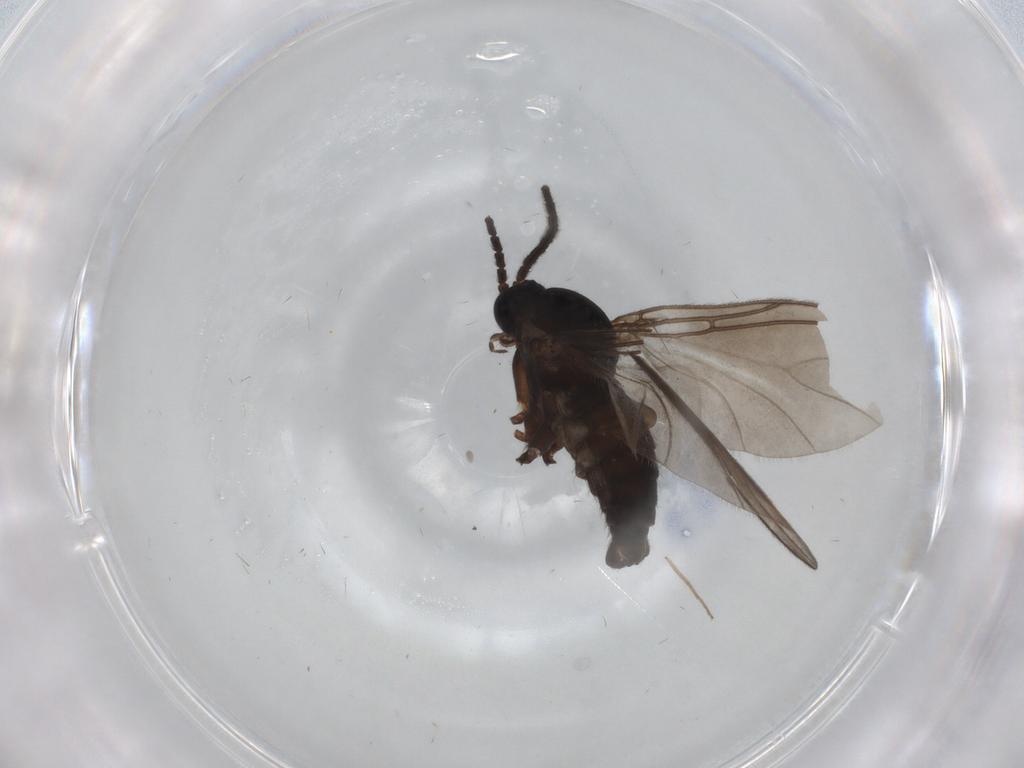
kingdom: Animalia
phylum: Arthropoda
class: Insecta
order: Diptera
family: Sciaridae
